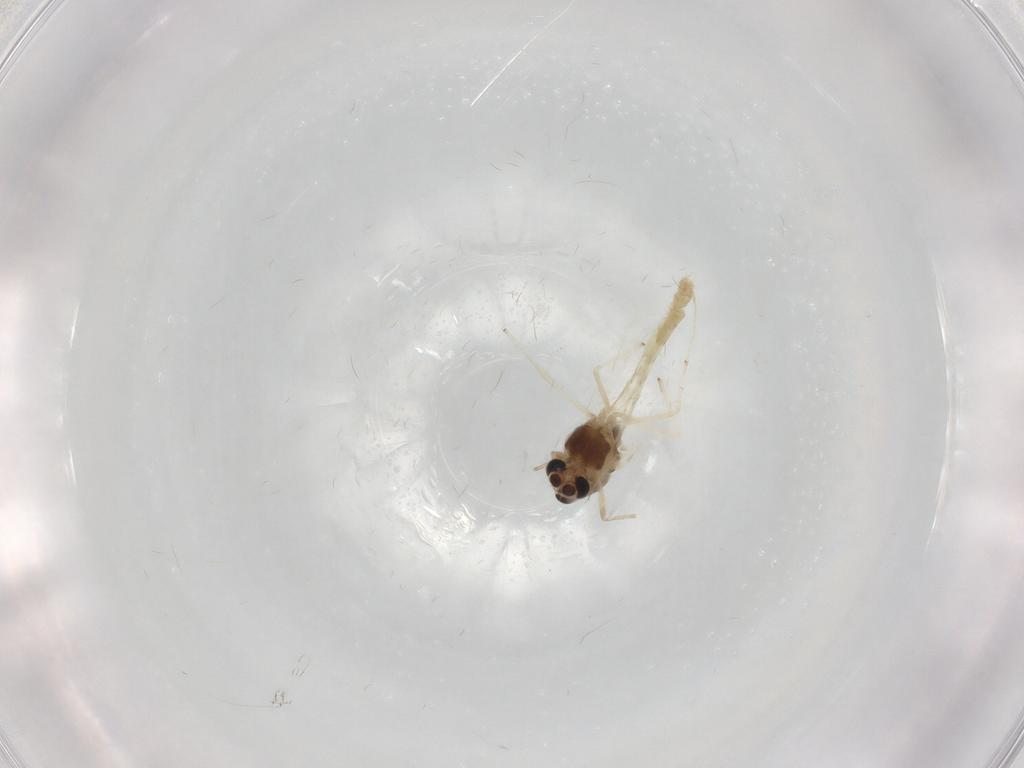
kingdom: Animalia
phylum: Arthropoda
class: Insecta
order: Diptera
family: Chironomidae
